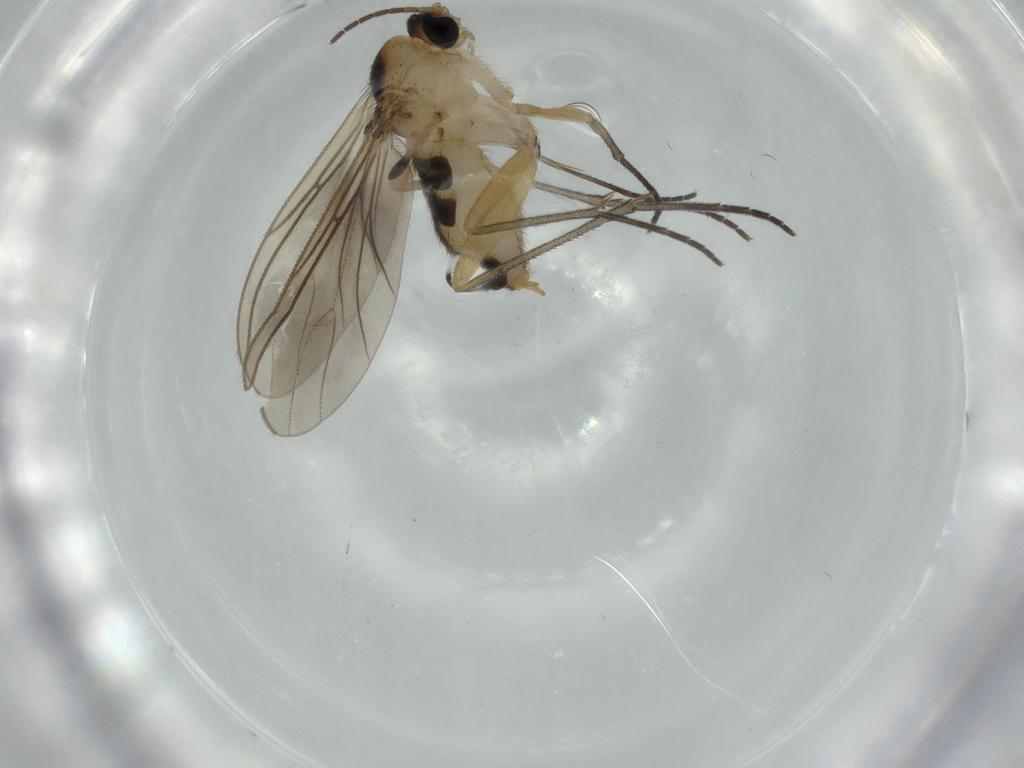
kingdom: Animalia
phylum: Arthropoda
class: Insecta
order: Diptera
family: Sciaridae
